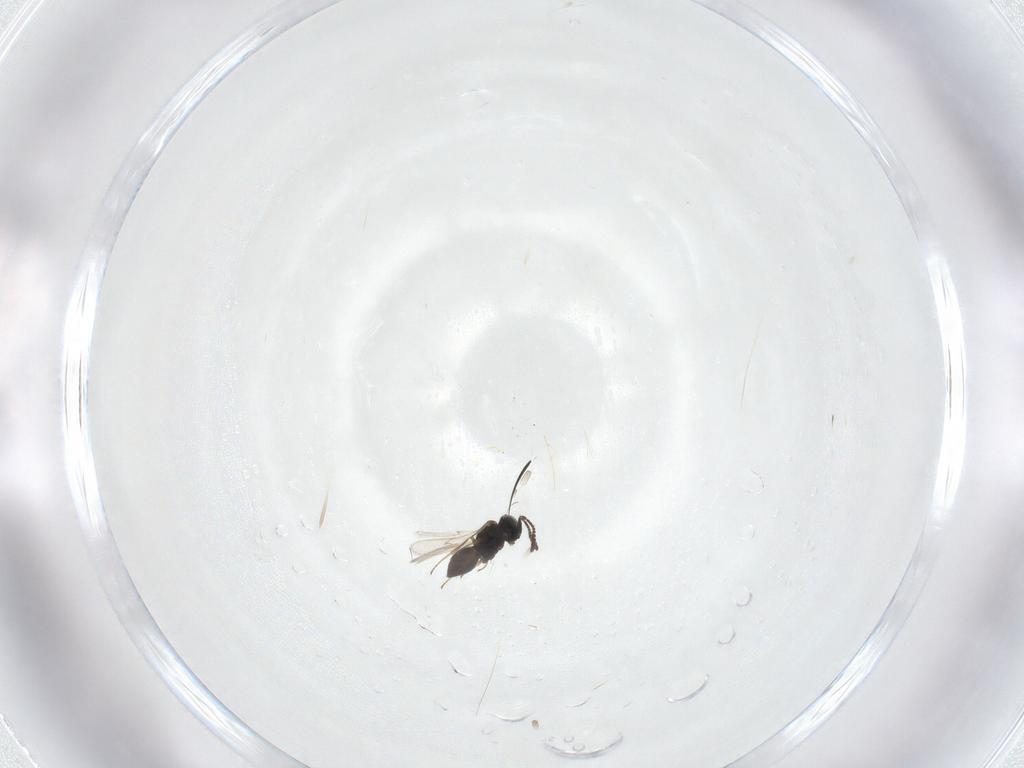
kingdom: Animalia
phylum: Arthropoda
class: Insecta
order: Hymenoptera
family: Scelionidae
